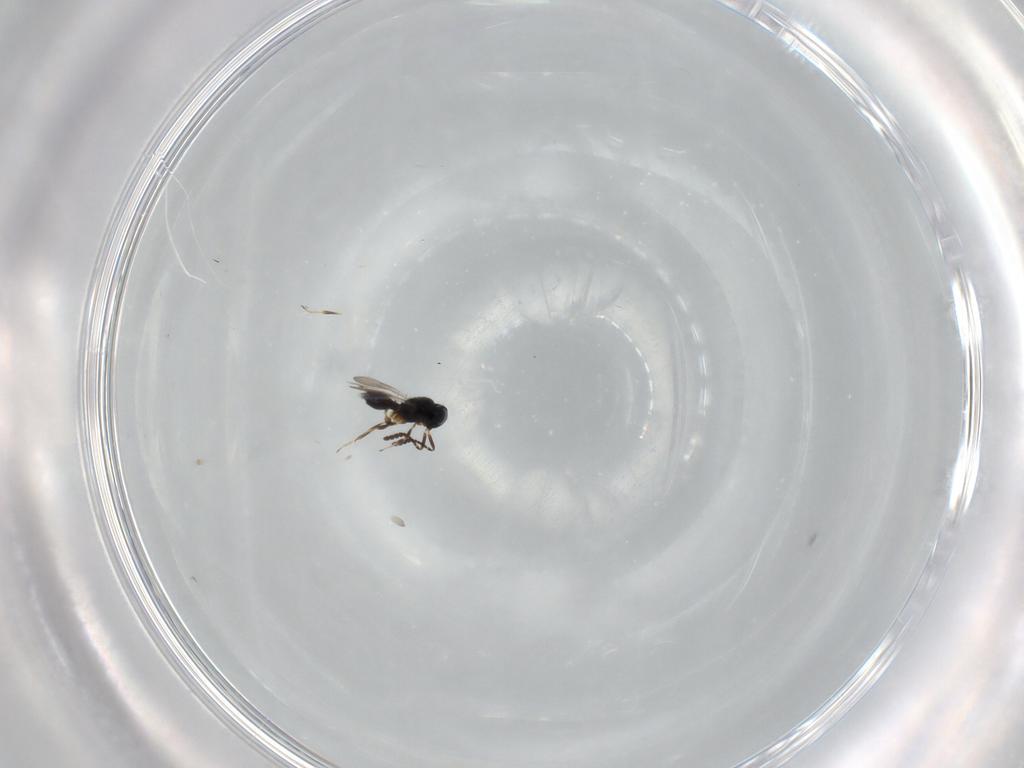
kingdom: Animalia
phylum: Arthropoda
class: Insecta
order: Hymenoptera
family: Scelionidae
